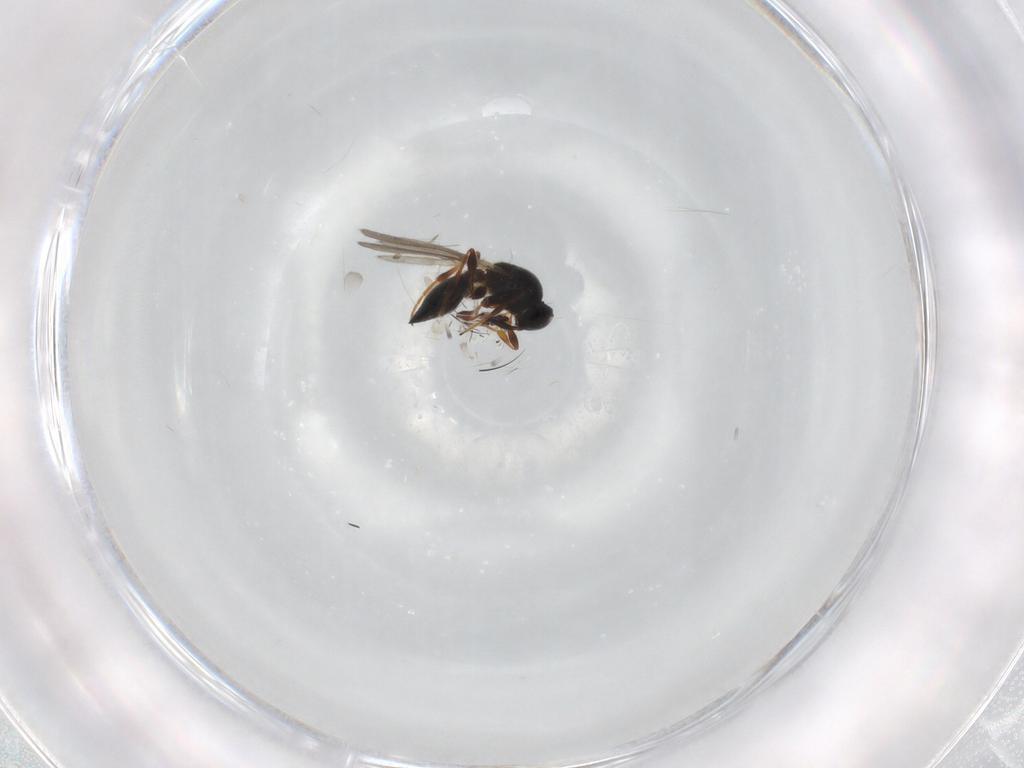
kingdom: Animalia
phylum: Arthropoda
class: Insecta
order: Hymenoptera
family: Platygastridae
